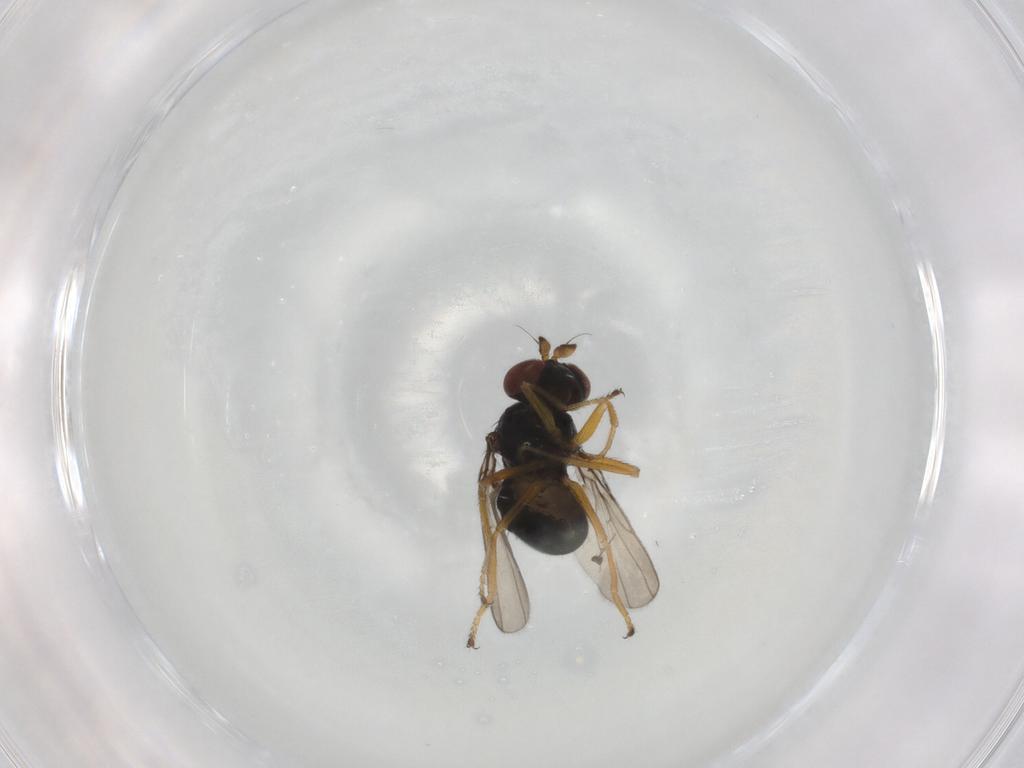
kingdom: Animalia
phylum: Arthropoda
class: Insecta
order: Diptera
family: Ephydridae
